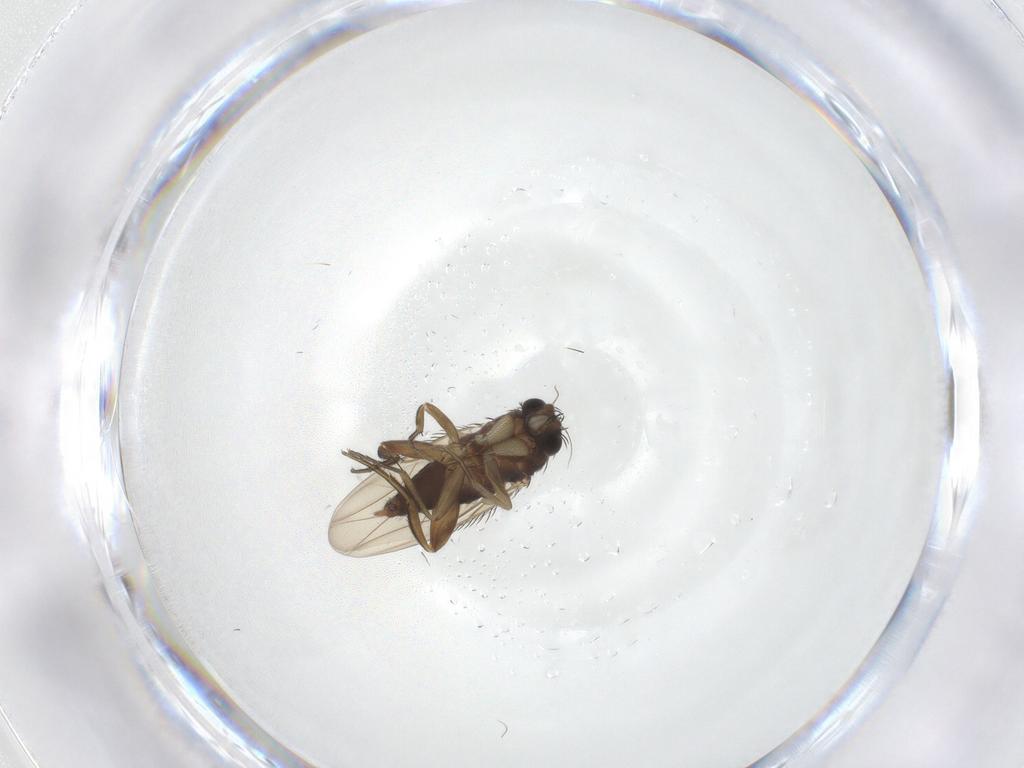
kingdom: Animalia
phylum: Arthropoda
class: Insecta
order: Diptera
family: Phoridae
